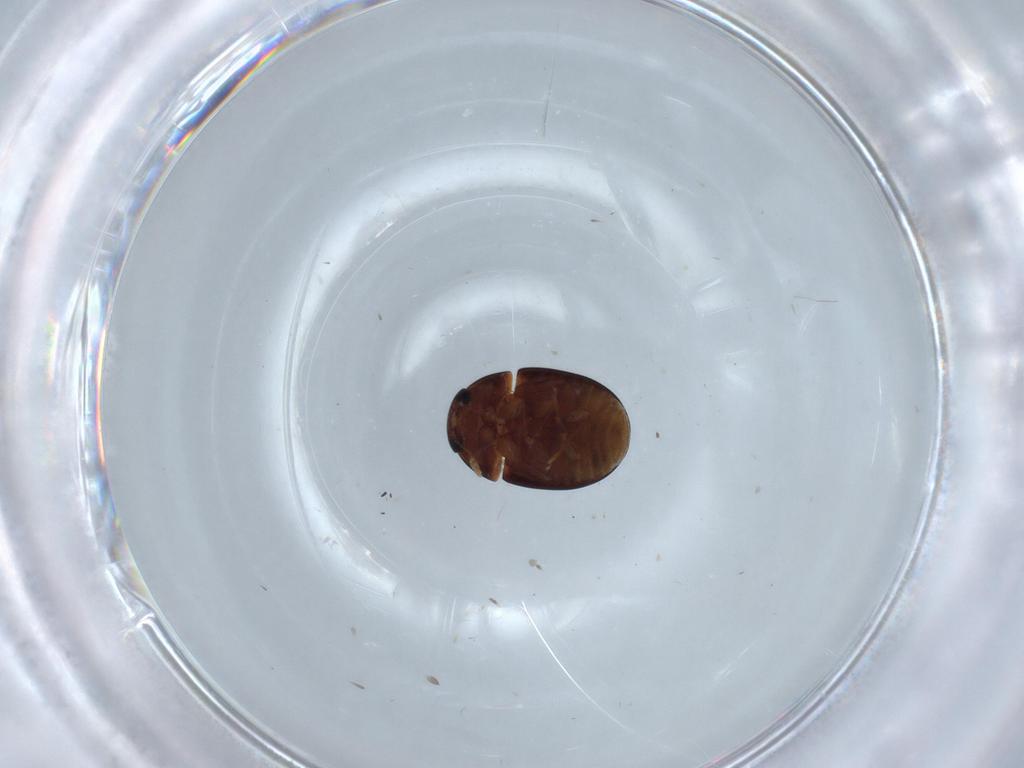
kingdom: Animalia
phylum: Arthropoda
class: Insecta
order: Coleoptera
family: Phalacridae
